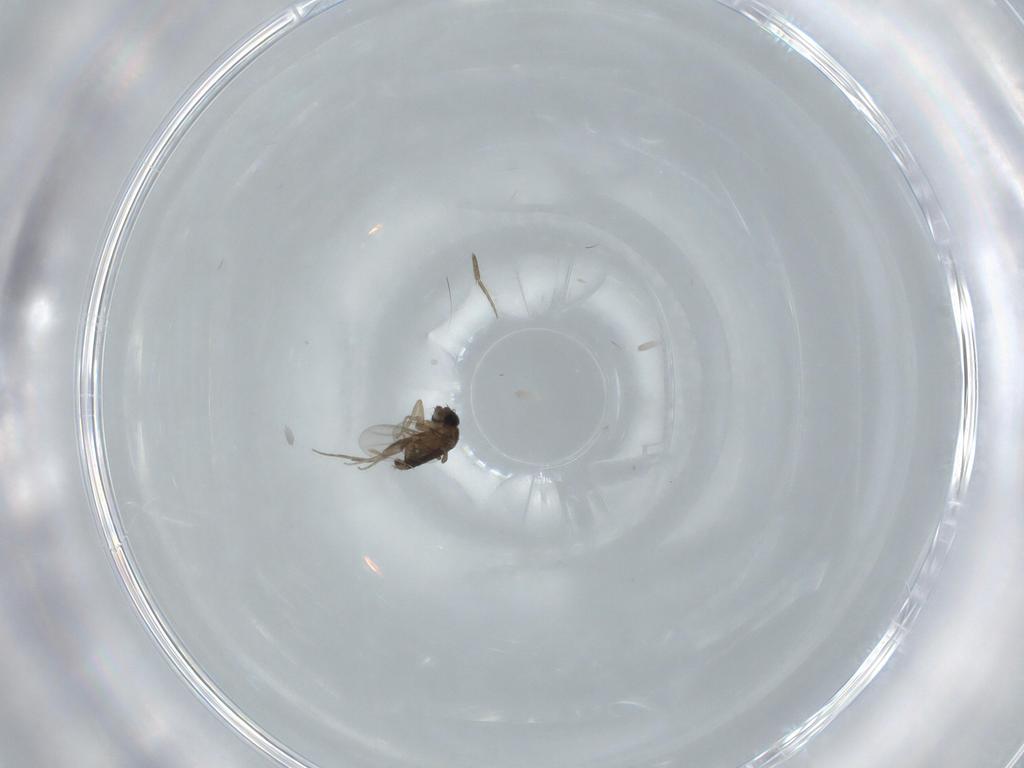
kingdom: Animalia
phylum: Arthropoda
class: Insecta
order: Diptera
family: Phoridae
